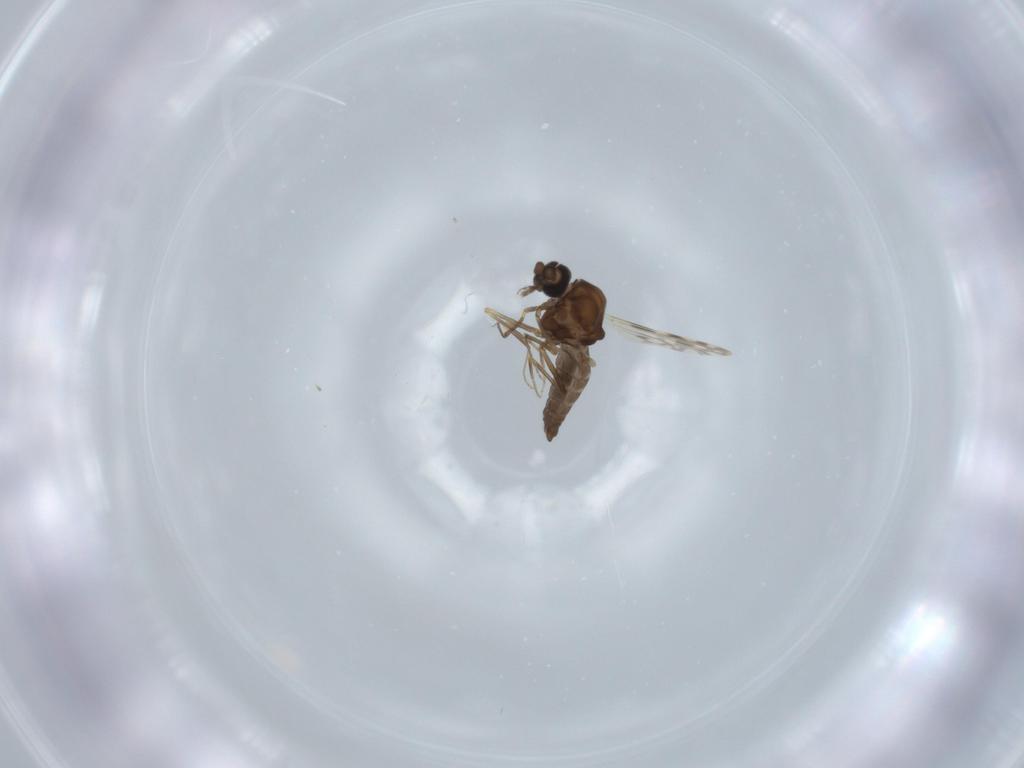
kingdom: Animalia
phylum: Arthropoda
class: Insecta
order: Diptera
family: Ceratopogonidae
